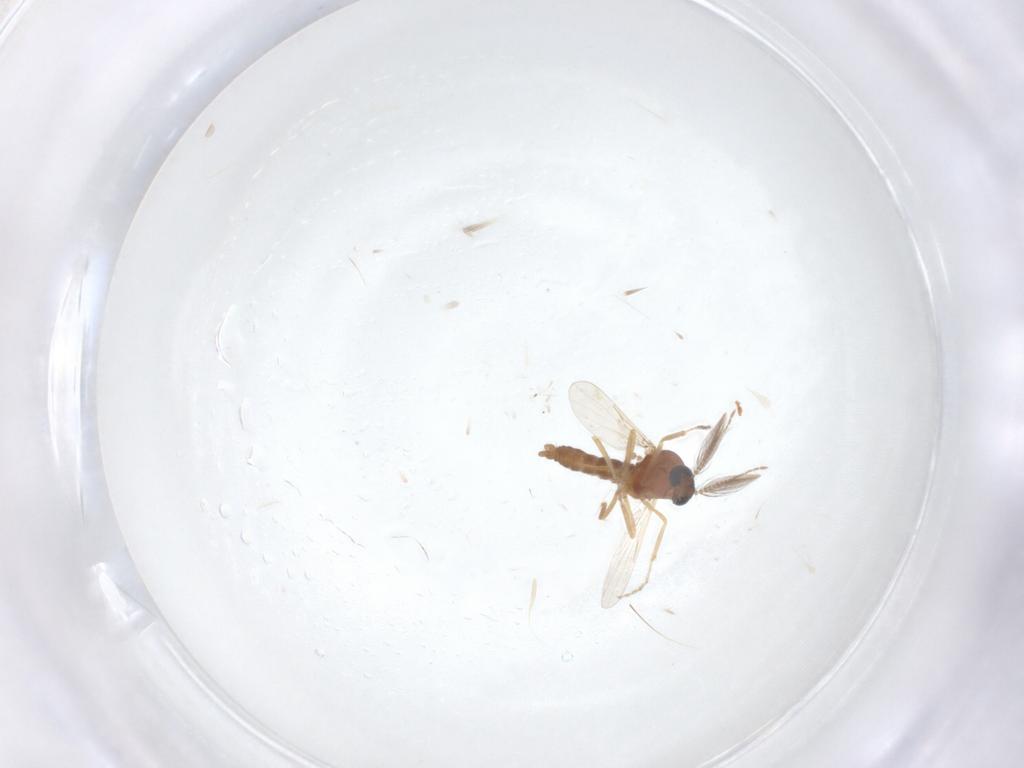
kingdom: Animalia
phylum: Arthropoda
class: Insecta
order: Diptera
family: Ceratopogonidae
